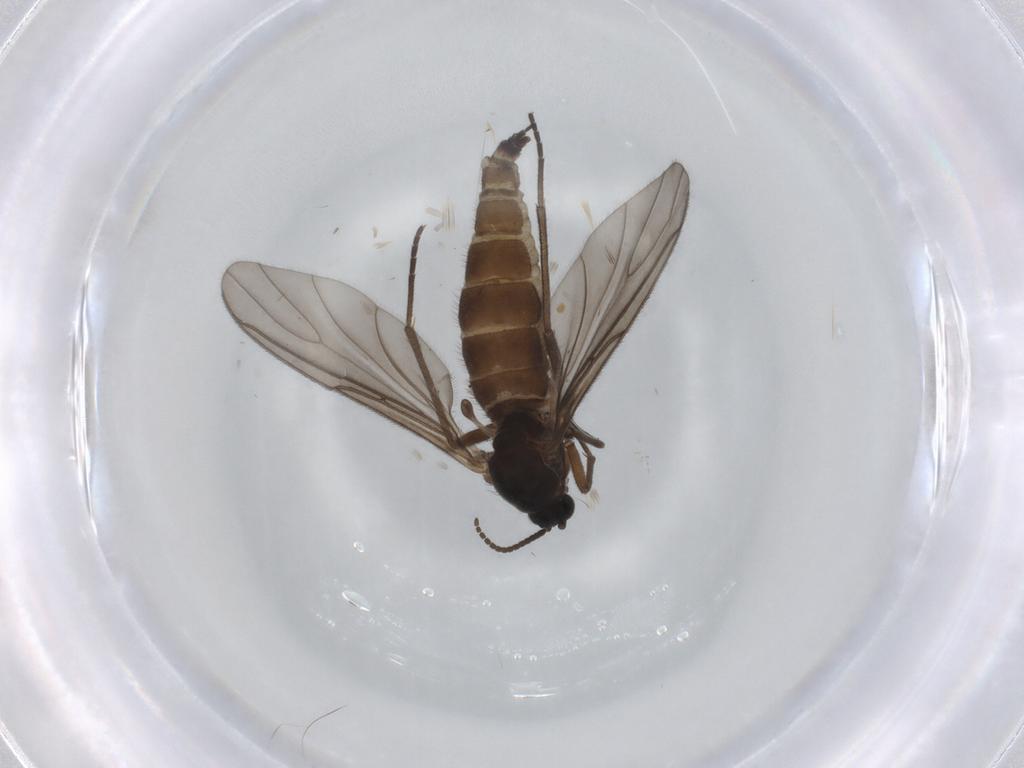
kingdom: Animalia
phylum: Arthropoda
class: Insecta
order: Diptera
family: Sciaridae
